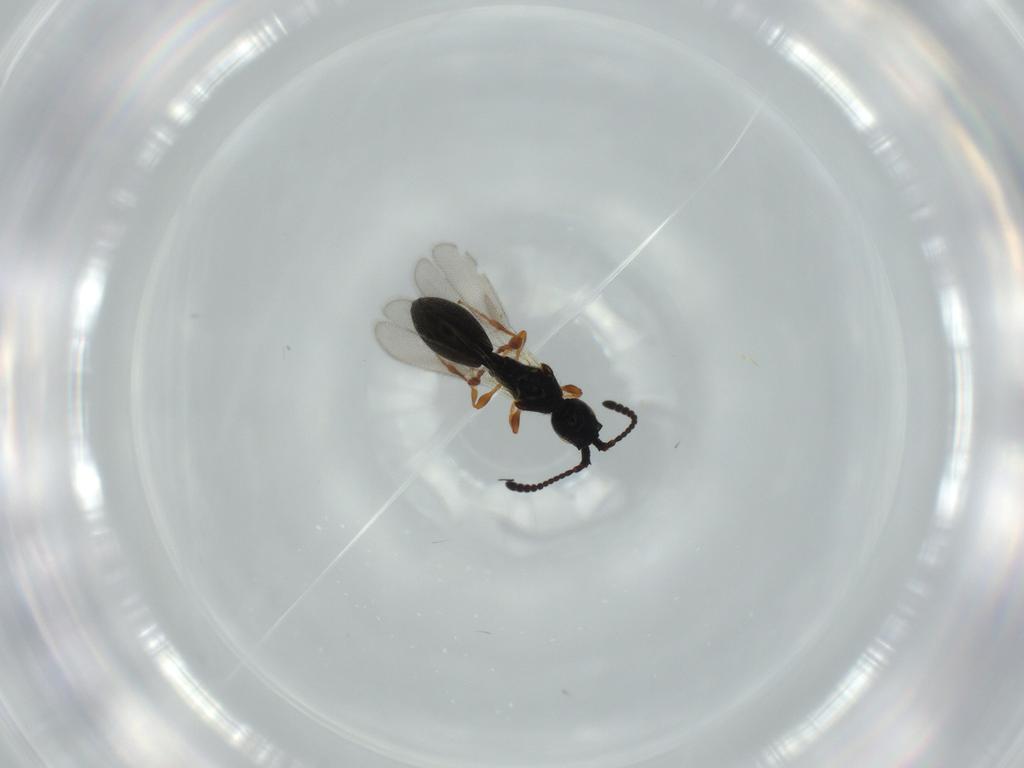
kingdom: Animalia
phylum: Arthropoda
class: Insecta
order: Hymenoptera
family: Diapriidae
